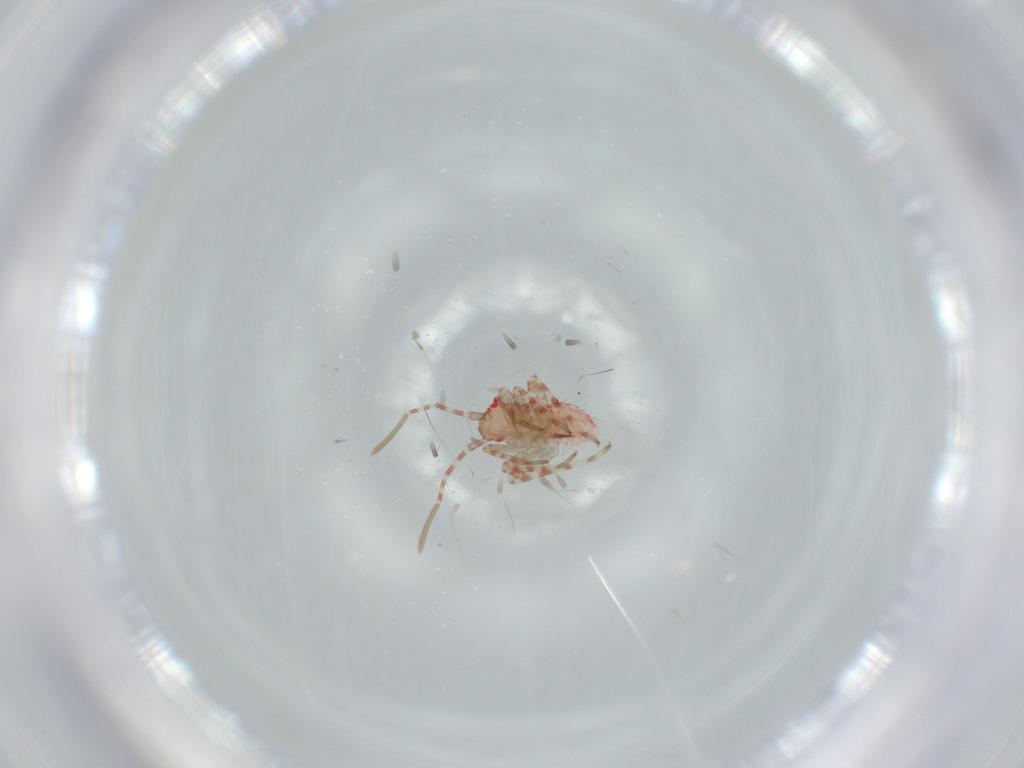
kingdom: Animalia
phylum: Arthropoda
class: Insecta
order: Hemiptera
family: Miridae
